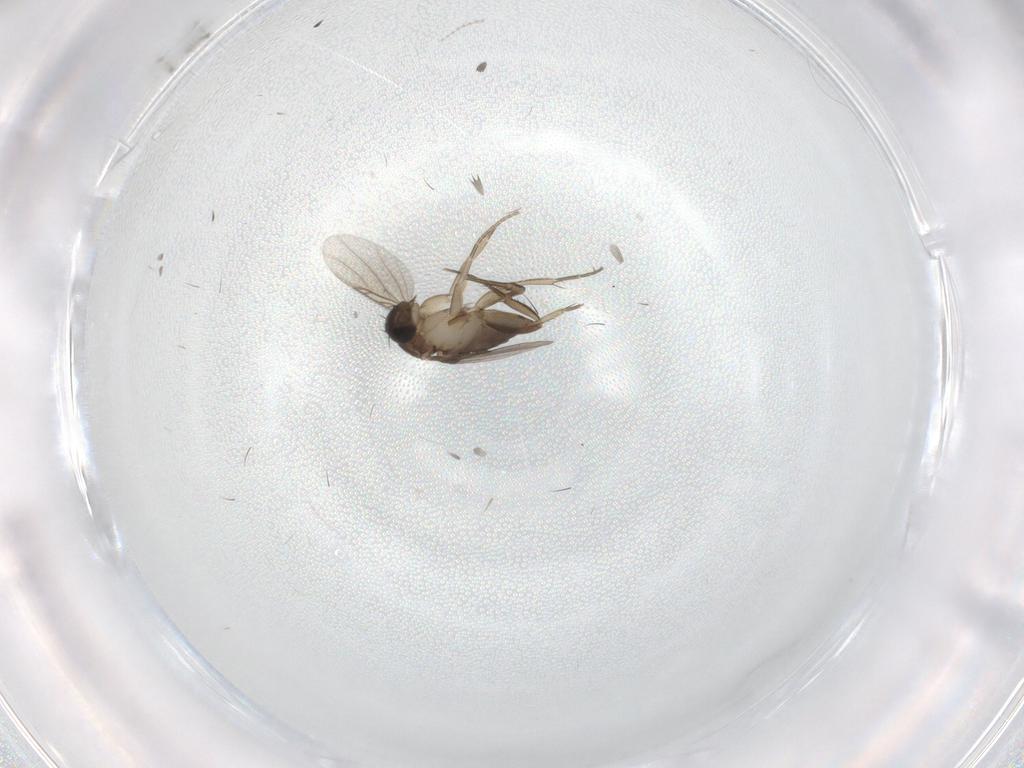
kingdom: Animalia
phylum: Arthropoda
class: Insecta
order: Diptera
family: Phoridae
